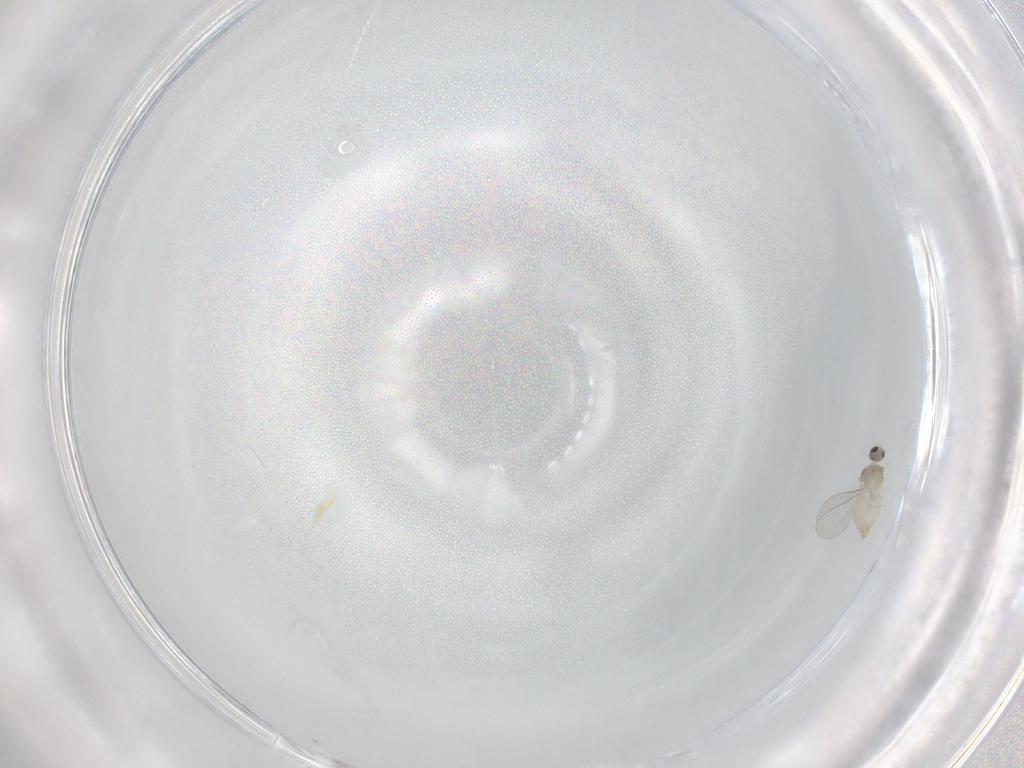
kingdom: Animalia
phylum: Arthropoda
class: Insecta
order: Diptera
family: Cecidomyiidae
